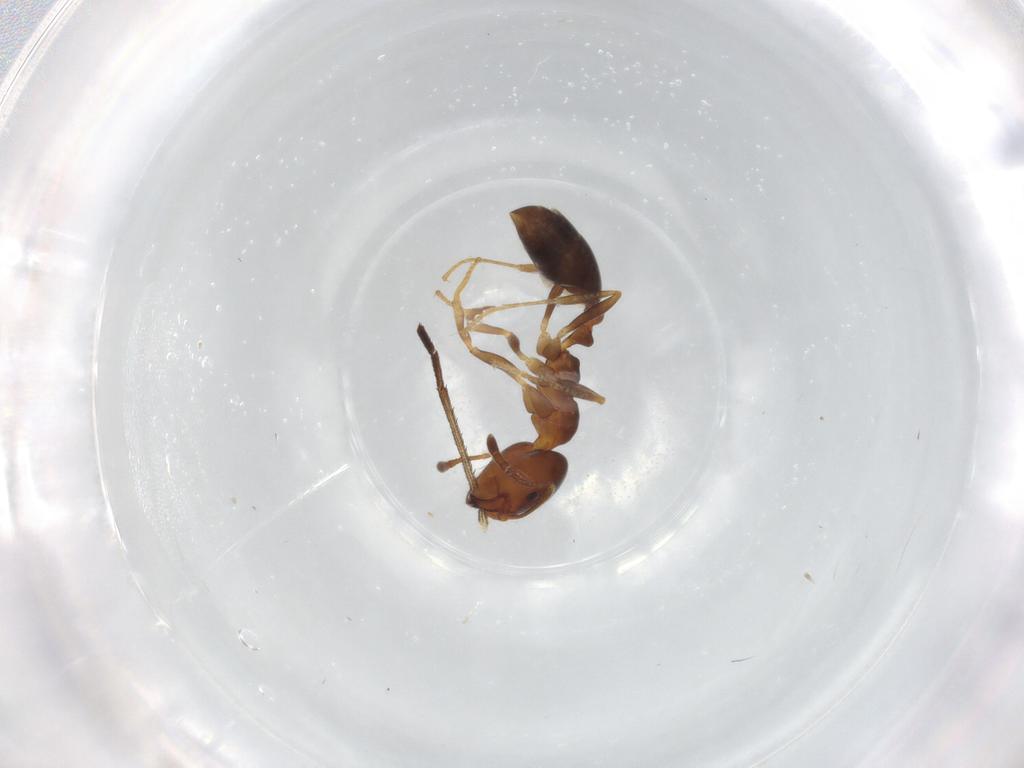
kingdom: Animalia
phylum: Arthropoda
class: Insecta
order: Hymenoptera
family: Formicidae
